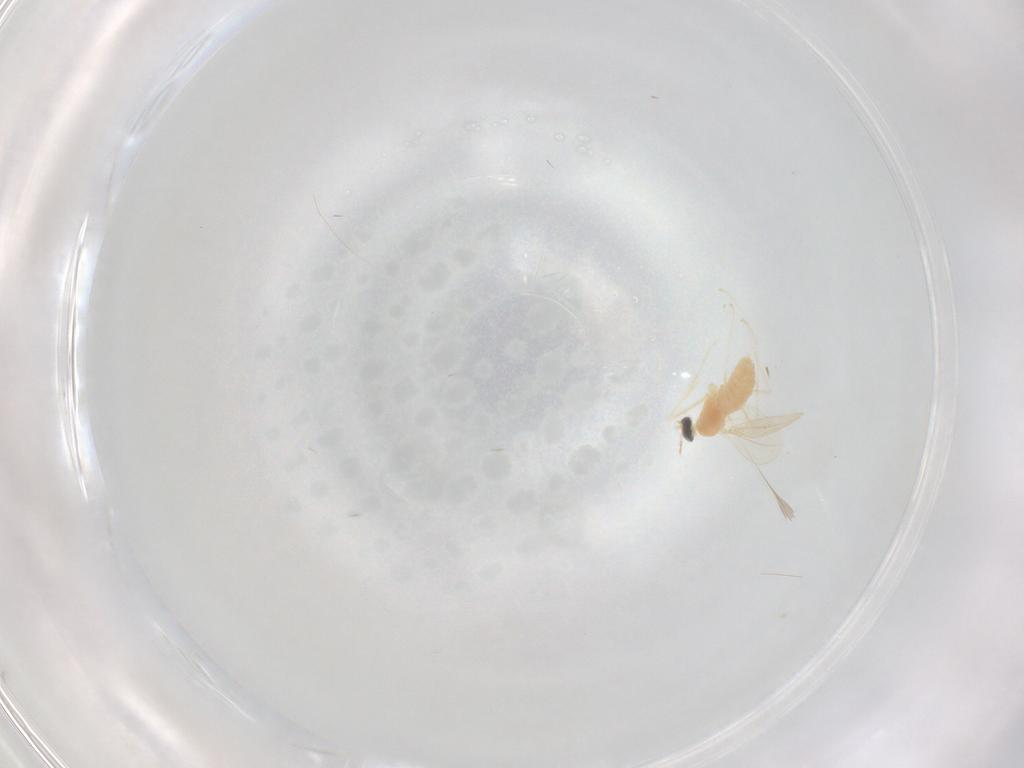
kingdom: Animalia
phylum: Arthropoda
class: Insecta
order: Diptera
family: Cecidomyiidae
